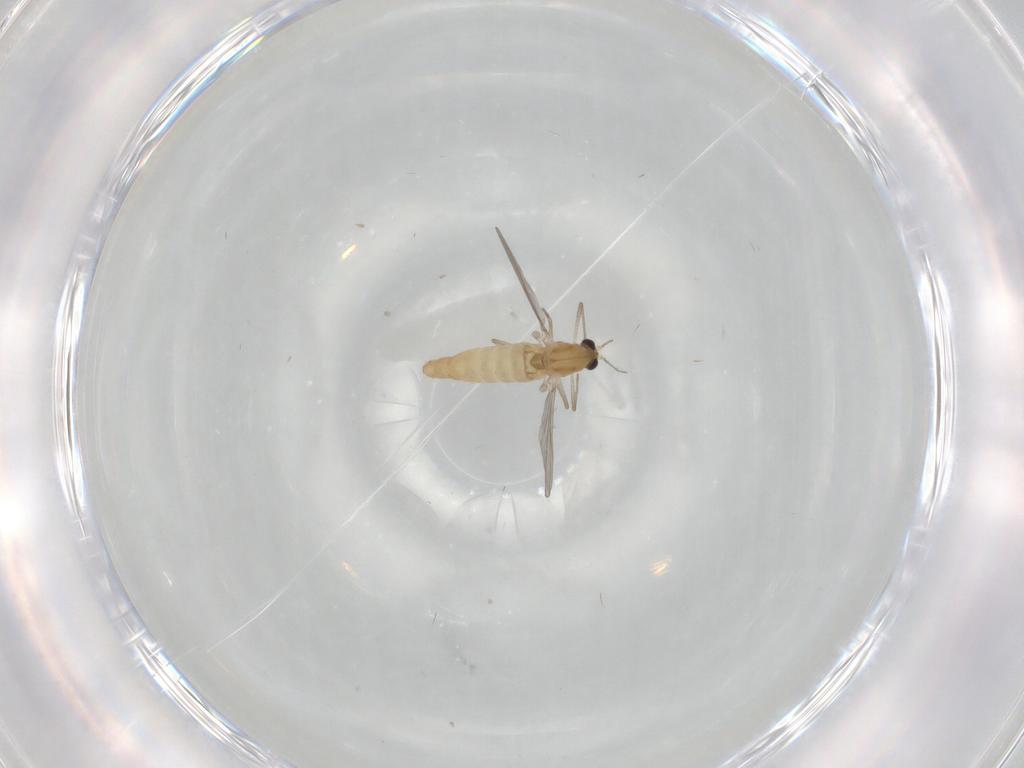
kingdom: Animalia
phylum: Arthropoda
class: Insecta
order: Diptera
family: Chironomidae
